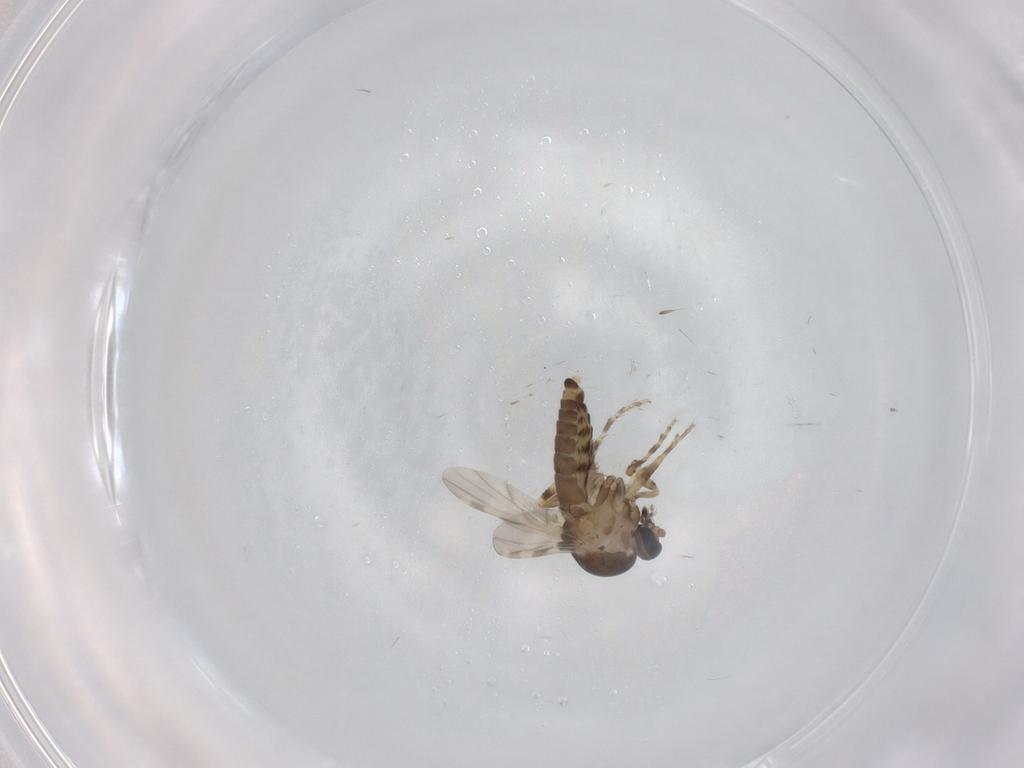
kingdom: Animalia
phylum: Arthropoda
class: Insecta
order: Diptera
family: Ceratopogonidae
